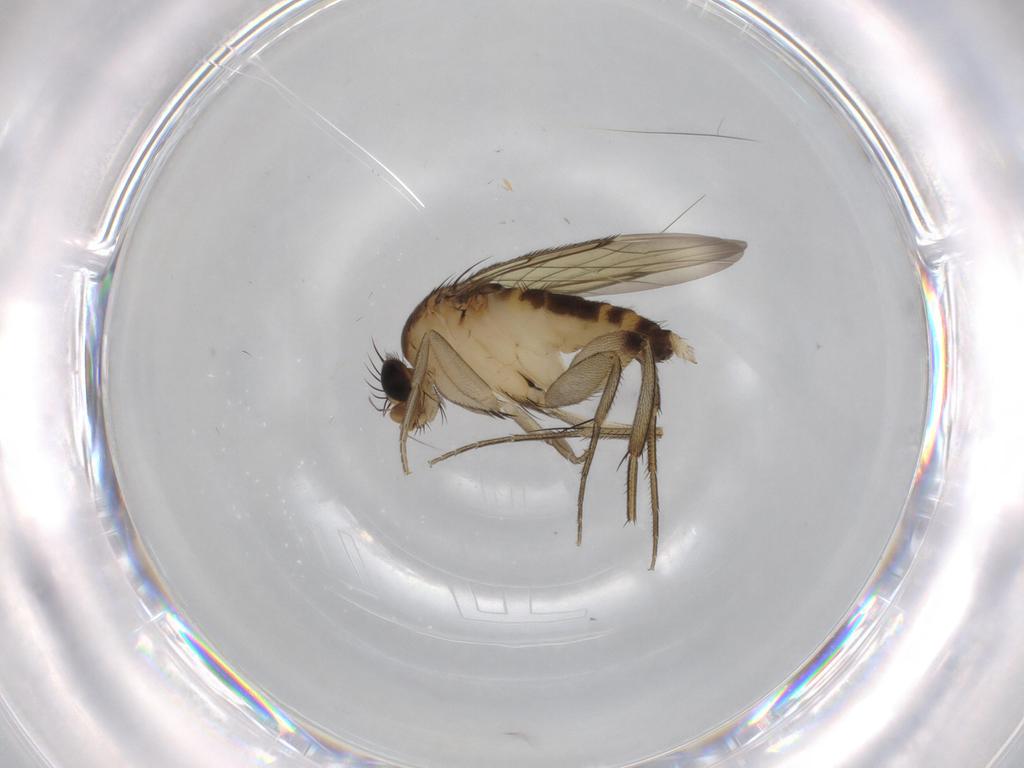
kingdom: Animalia
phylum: Arthropoda
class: Insecta
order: Diptera
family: Phoridae
